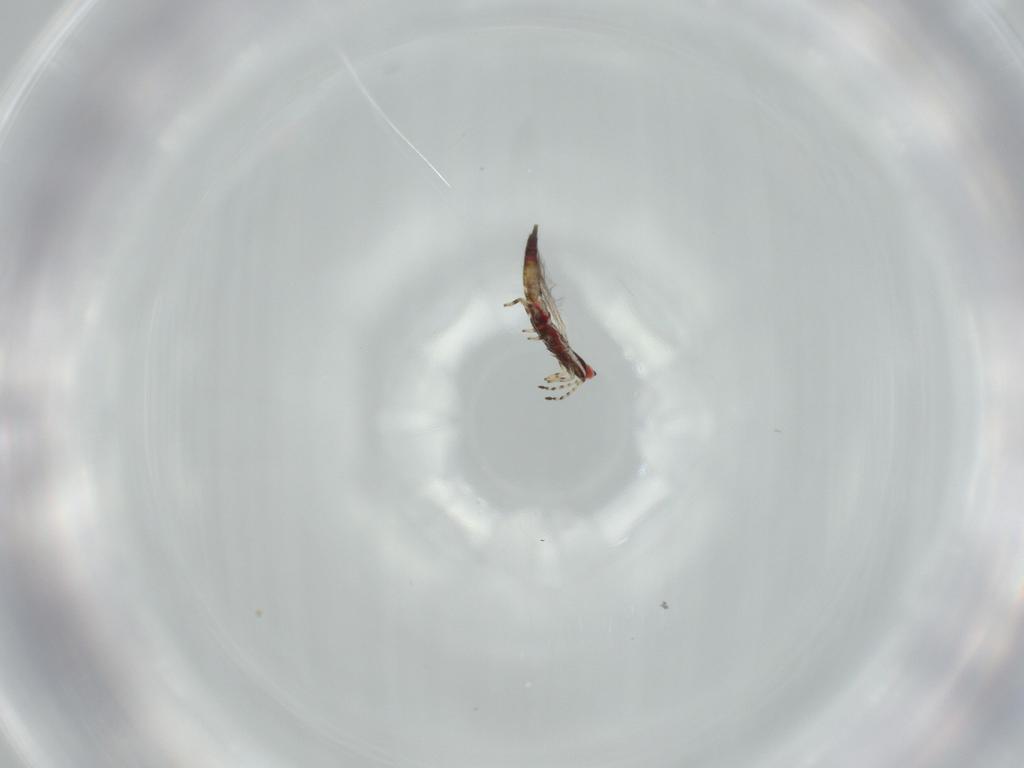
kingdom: Animalia
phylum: Arthropoda
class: Insecta
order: Thysanoptera
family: Phlaeothripidae
